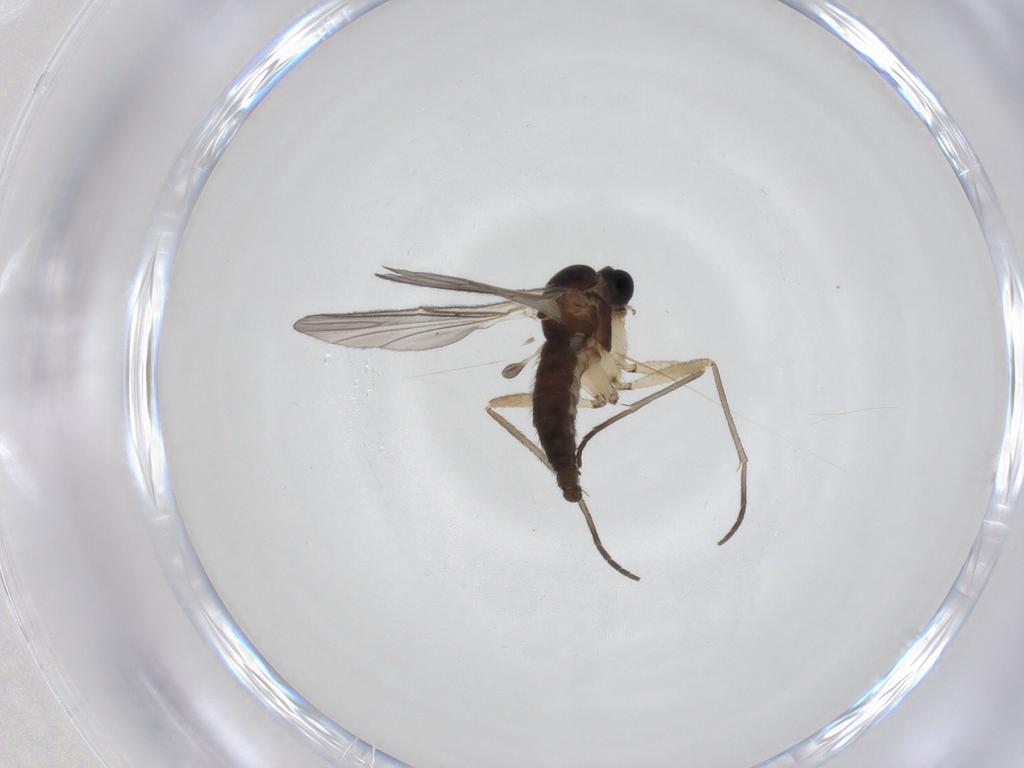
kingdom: Animalia
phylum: Arthropoda
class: Insecta
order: Diptera
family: Sciaridae
